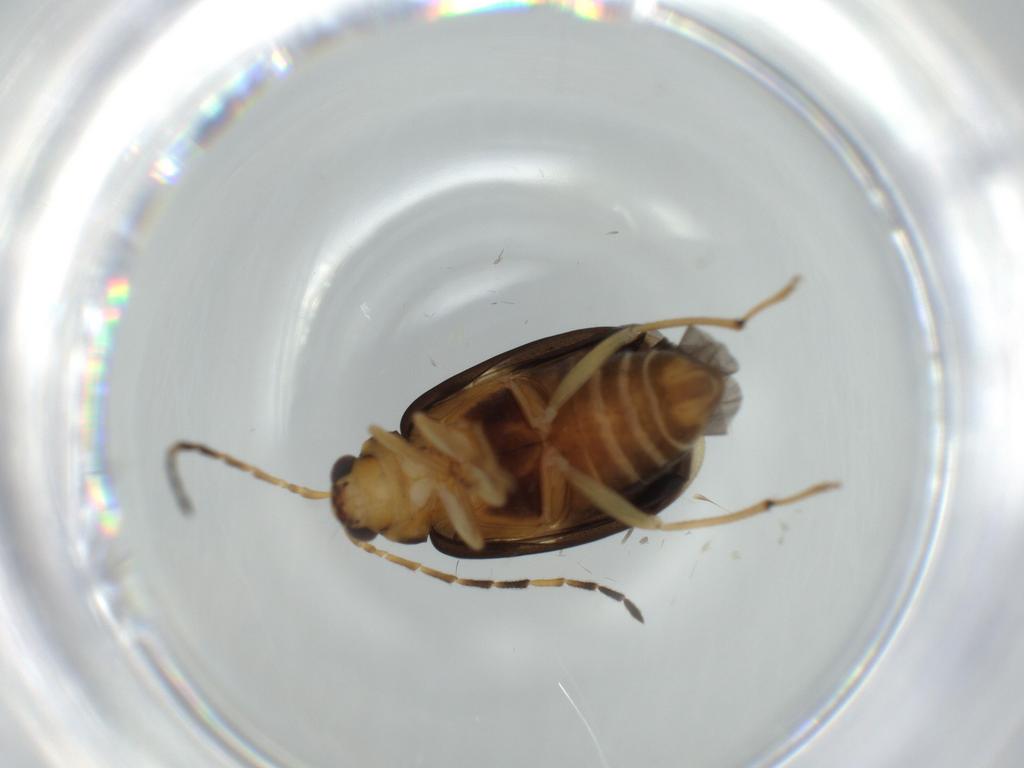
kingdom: Animalia
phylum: Arthropoda
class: Insecta
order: Coleoptera
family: Chrysomelidae
